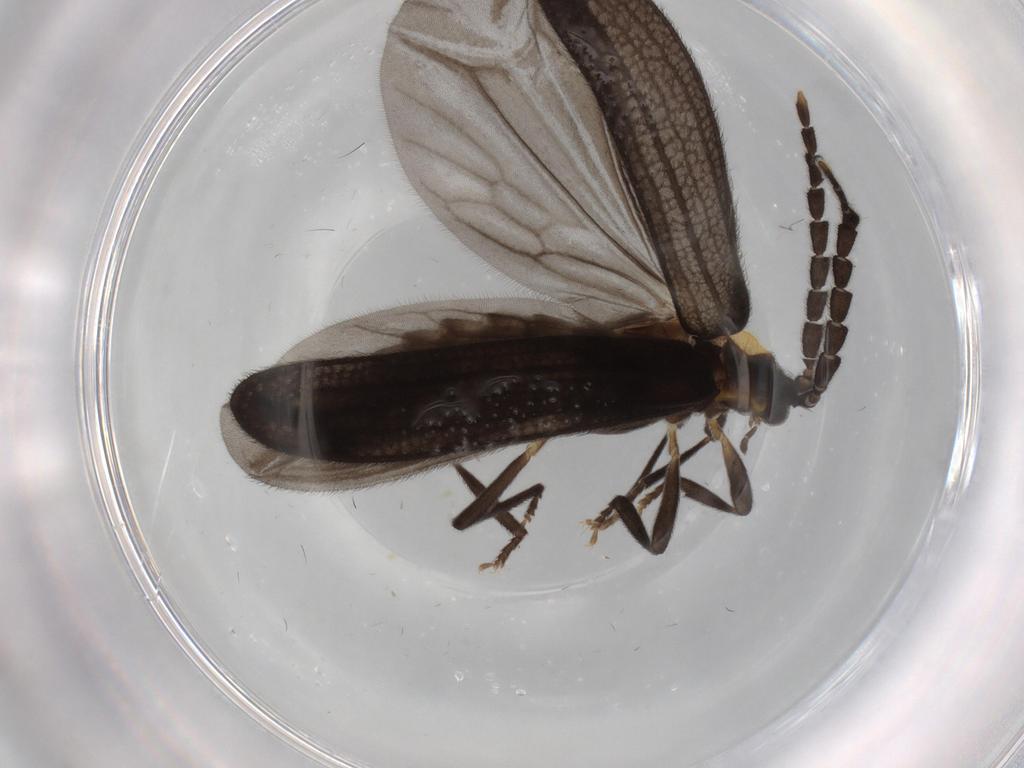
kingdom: Animalia
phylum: Arthropoda
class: Insecta
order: Coleoptera
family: Lycidae
